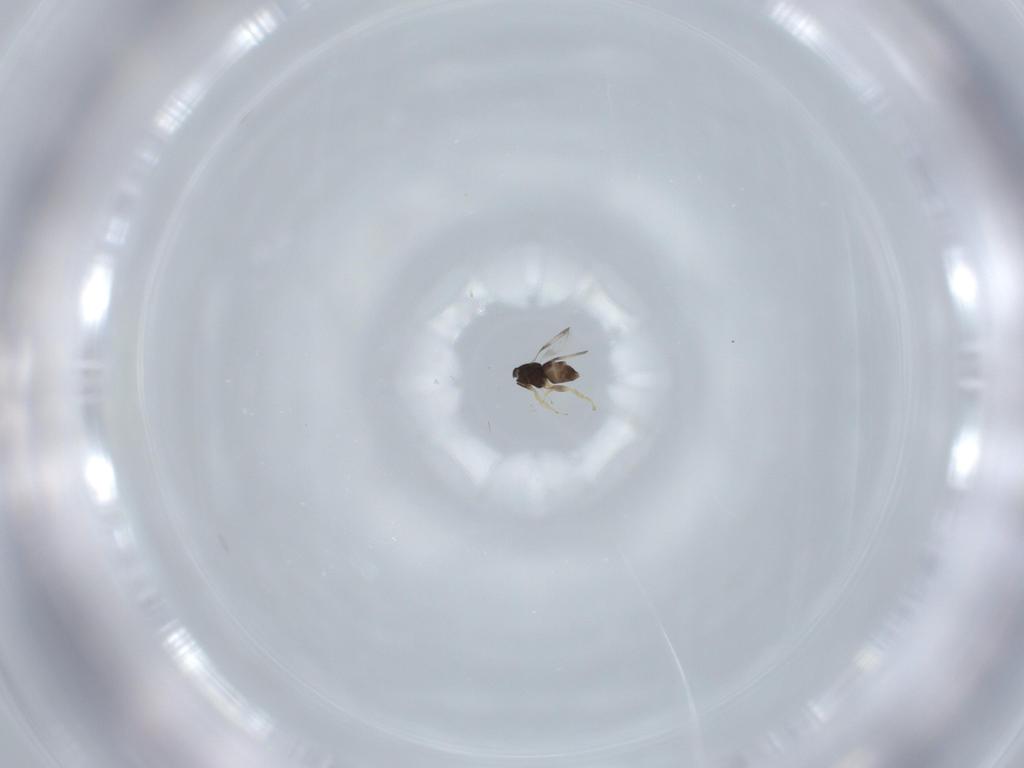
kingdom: Animalia
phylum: Arthropoda
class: Insecta
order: Hymenoptera
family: Ceraphronidae
